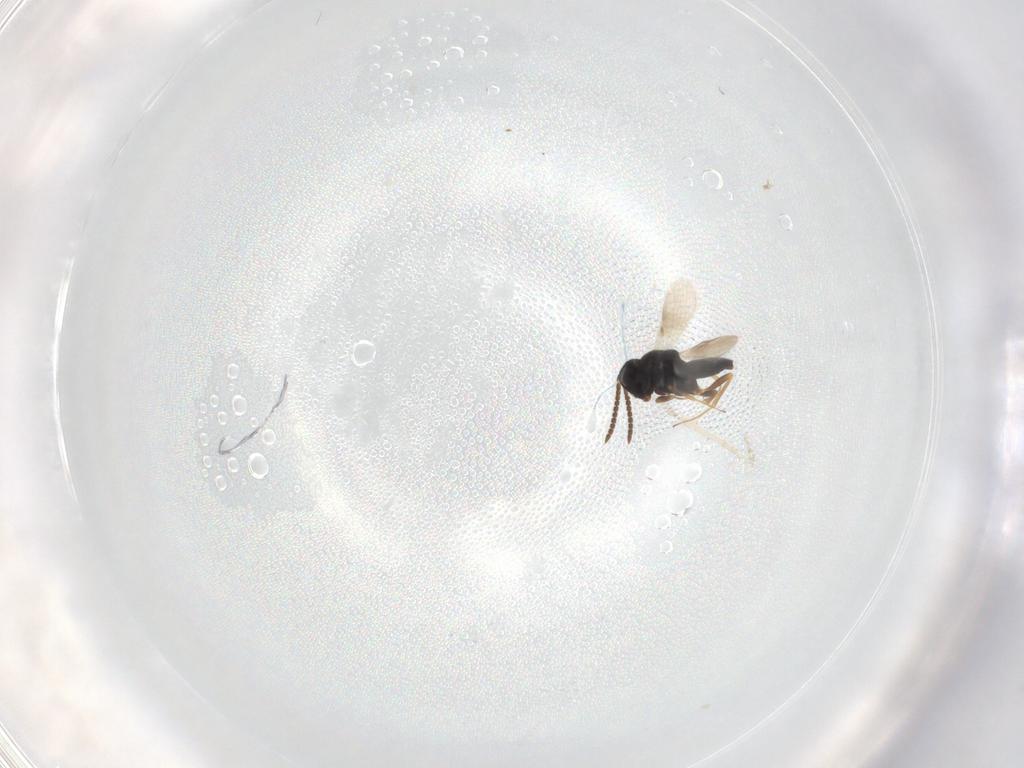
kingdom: Animalia
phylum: Arthropoda
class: Insecta
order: Hymenoptera
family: Scelionidae
